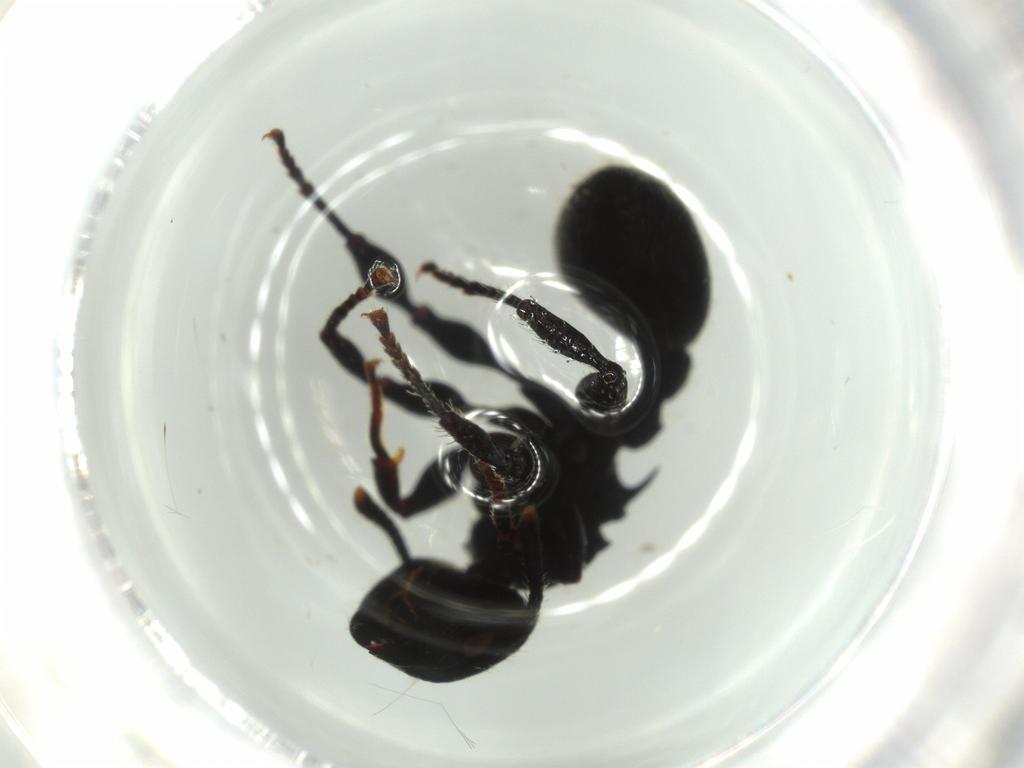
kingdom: Animalia
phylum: Arthropoda
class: Insecta
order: Hymenoptera
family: Formicidae
